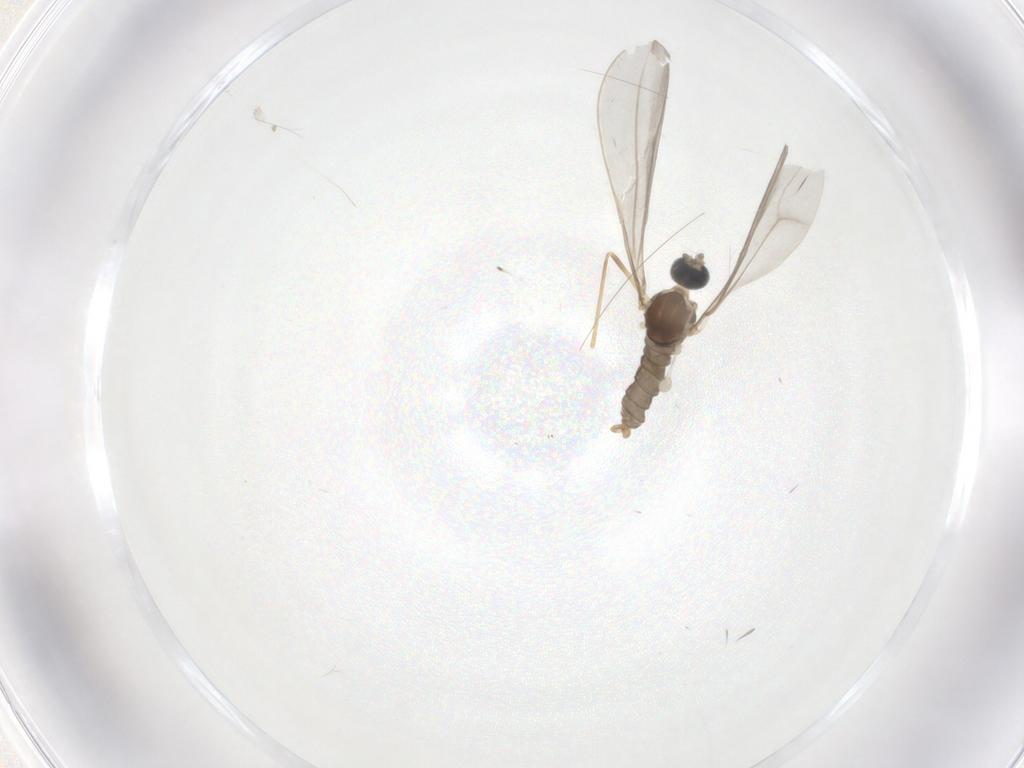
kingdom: Animalia
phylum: Arthropoda
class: Insecta
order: Diptera
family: Cecidomyiidae
